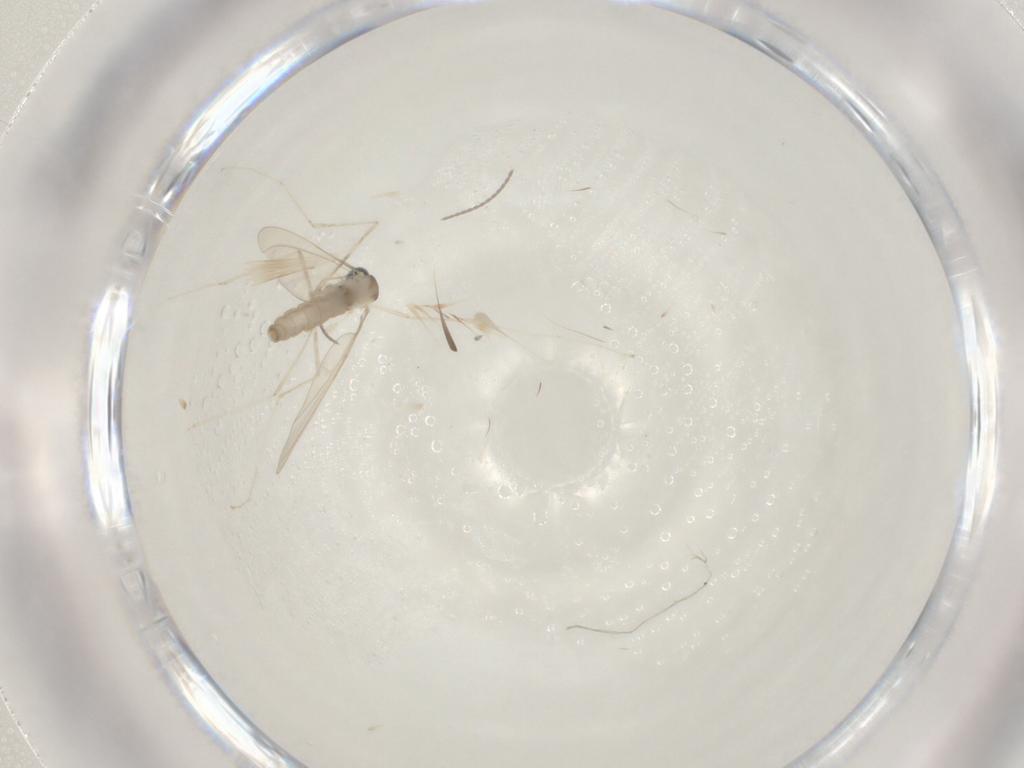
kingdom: Animalia
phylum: Arthropoda
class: Insecta
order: Diptera
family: Cecidomyiidae
